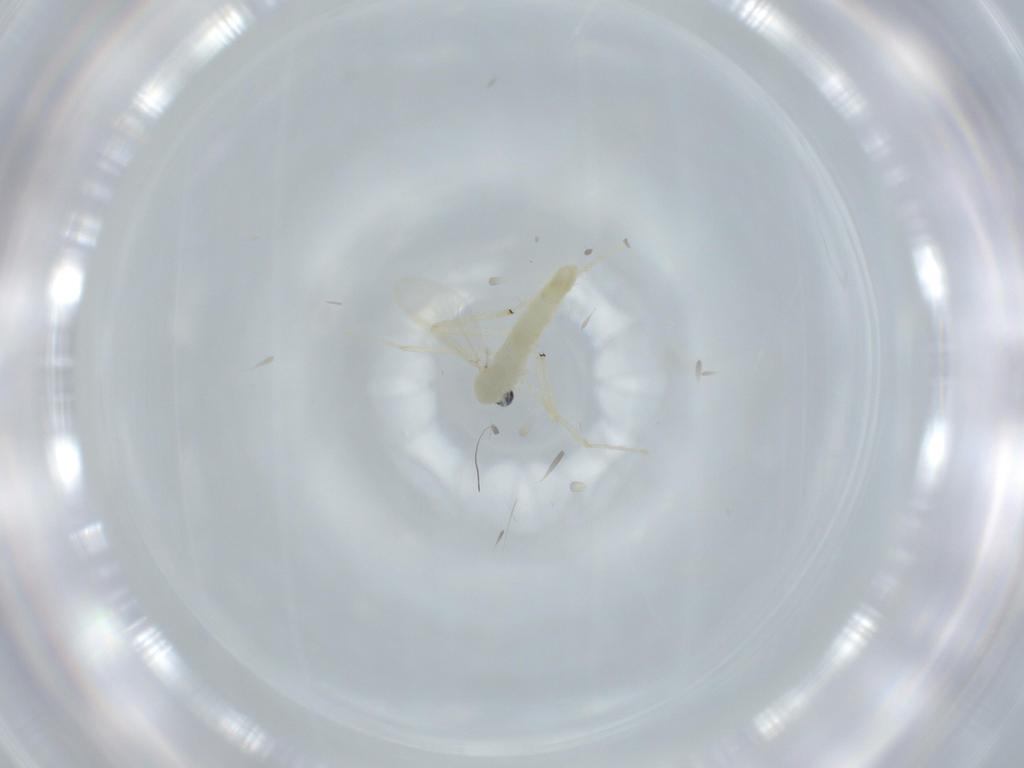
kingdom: Animalia
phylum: Arthropoda
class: Insecta
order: Diptera
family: Chironomidae
